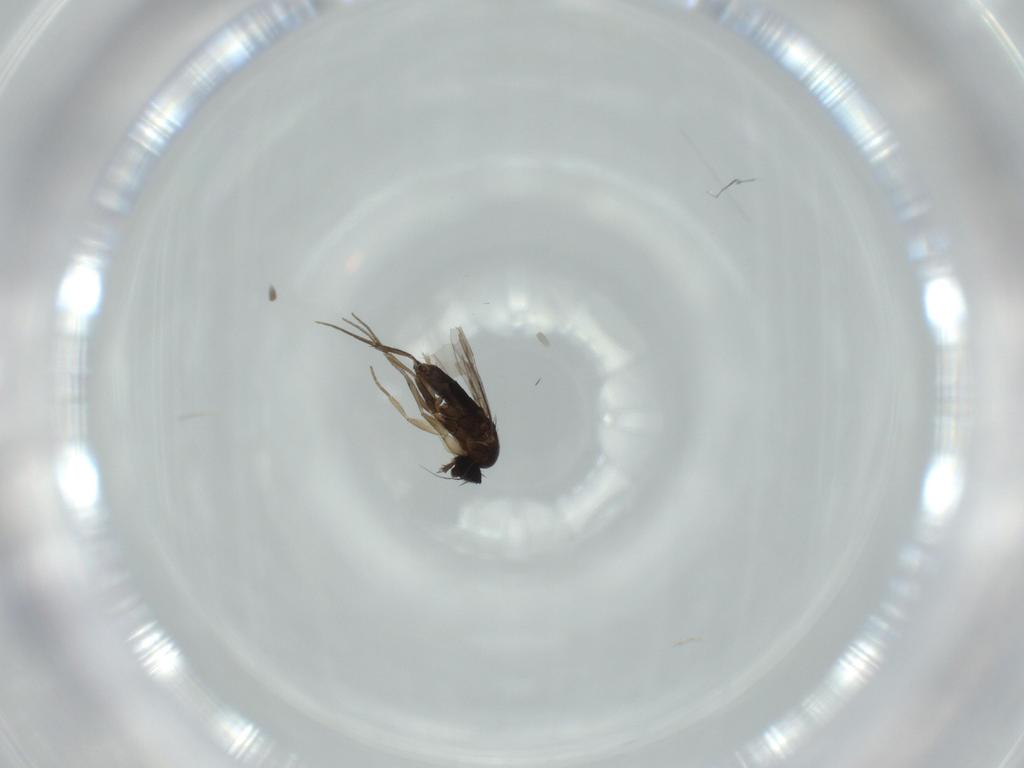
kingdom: Animalia
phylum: Arthropoda
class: Insecta
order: Diptera
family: Phoridae
